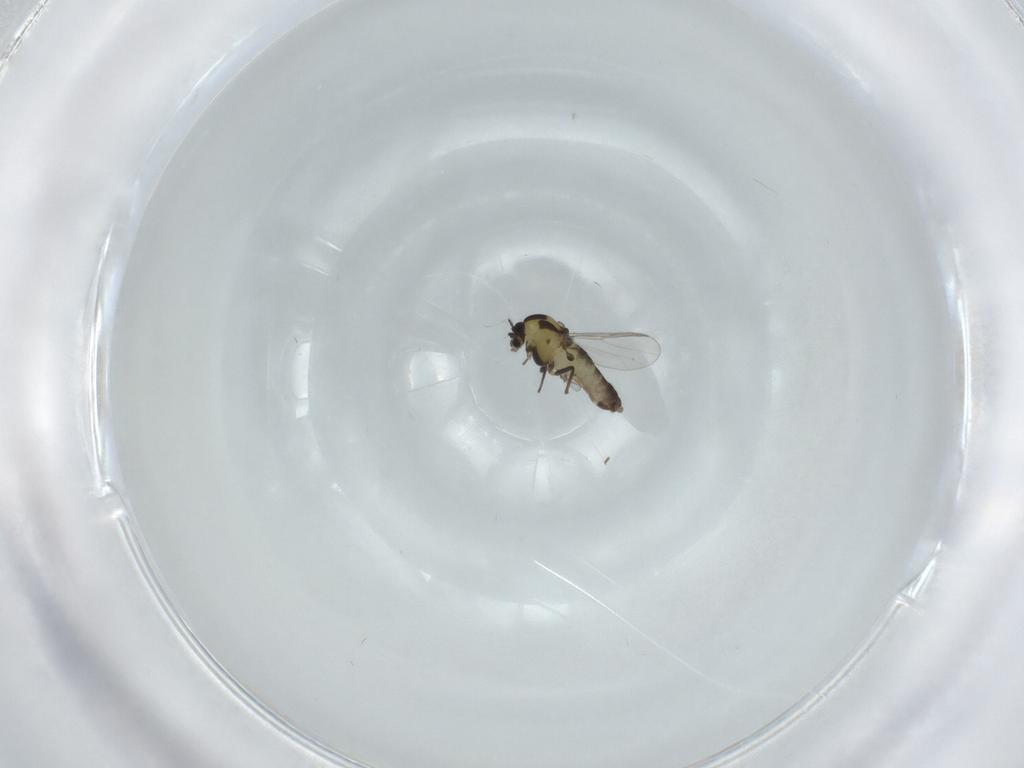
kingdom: Animalia
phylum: Arthropoda
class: Insecta
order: Diptera
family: Chironomidae
